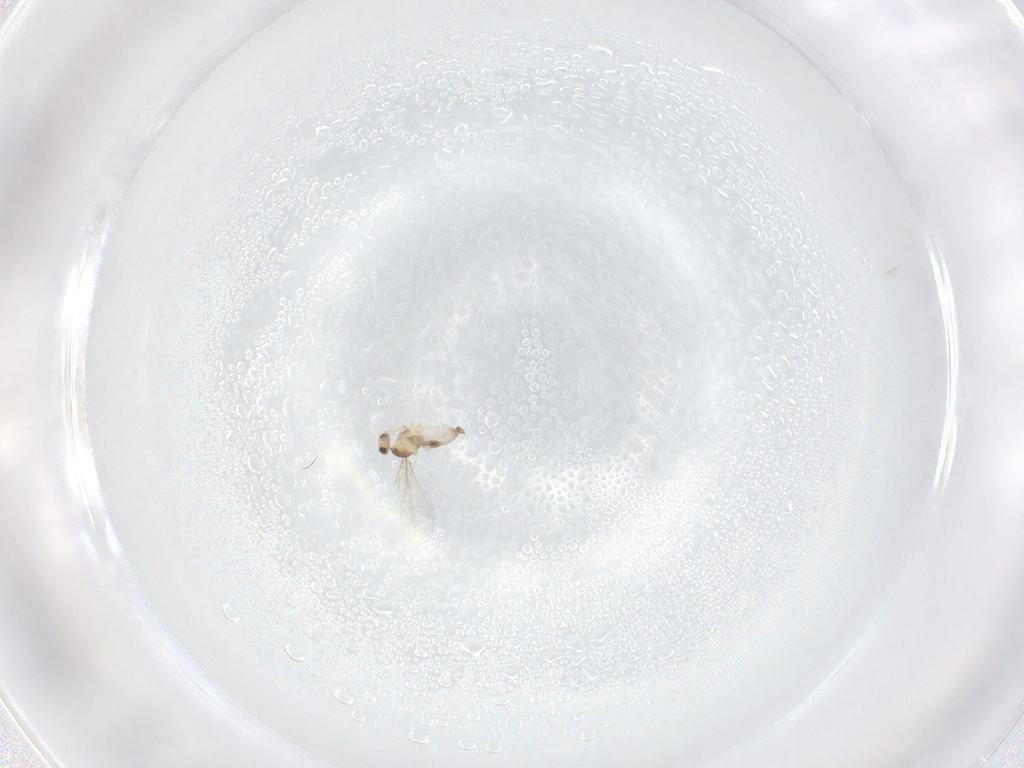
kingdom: Animalia
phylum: Arthropoda
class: Insecta
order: Diptera
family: Cecidomyiidae
